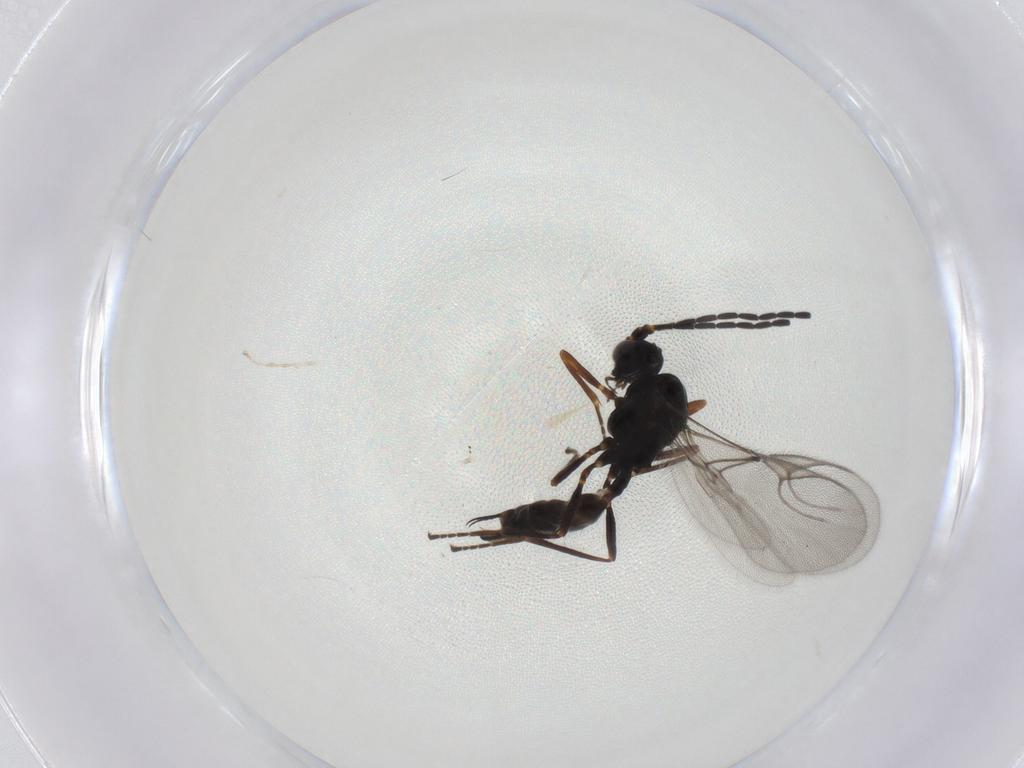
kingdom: Animalia
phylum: Arthropoda
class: Insecta
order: Hymenoptera
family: Braconidae
